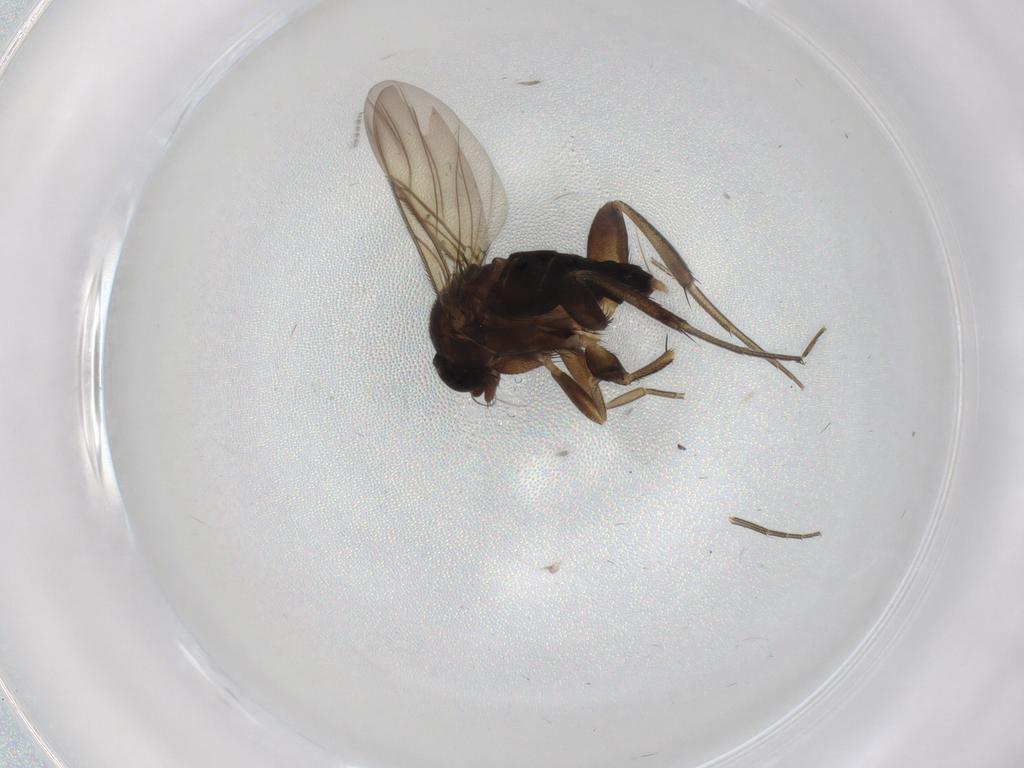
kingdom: Animalia
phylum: Arthropoda
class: Insecta
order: Diptera
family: Phoridae
